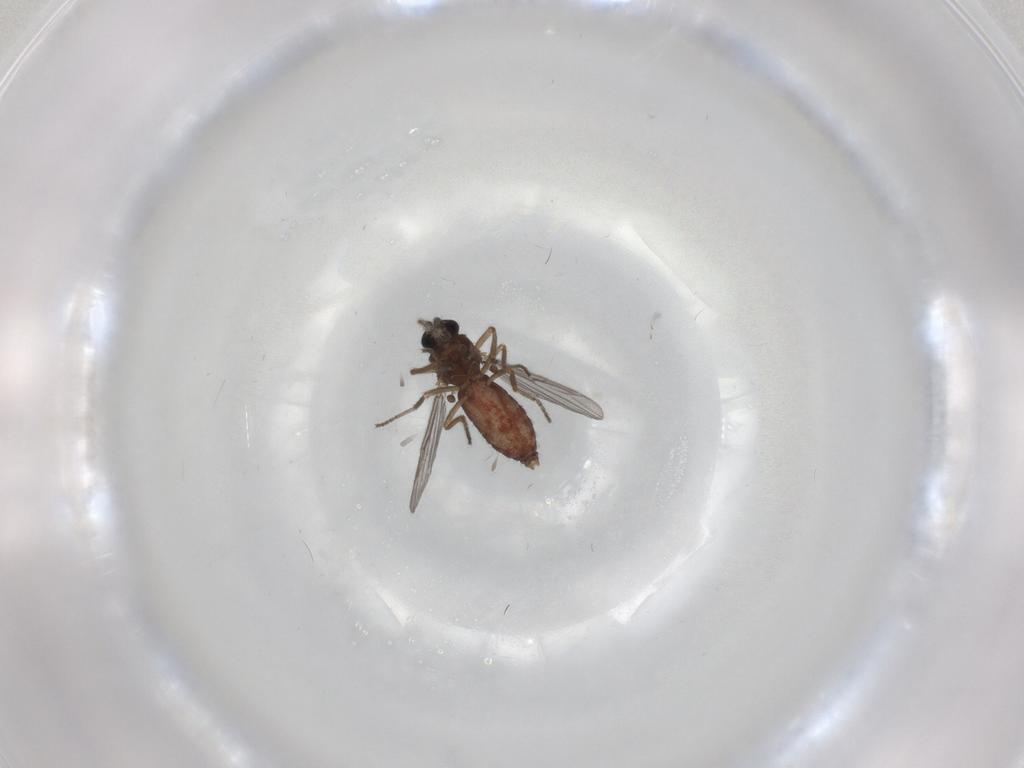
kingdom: Animalia
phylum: Arthropoda
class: Insecta
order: Diptera
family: Ceratopogonidae
